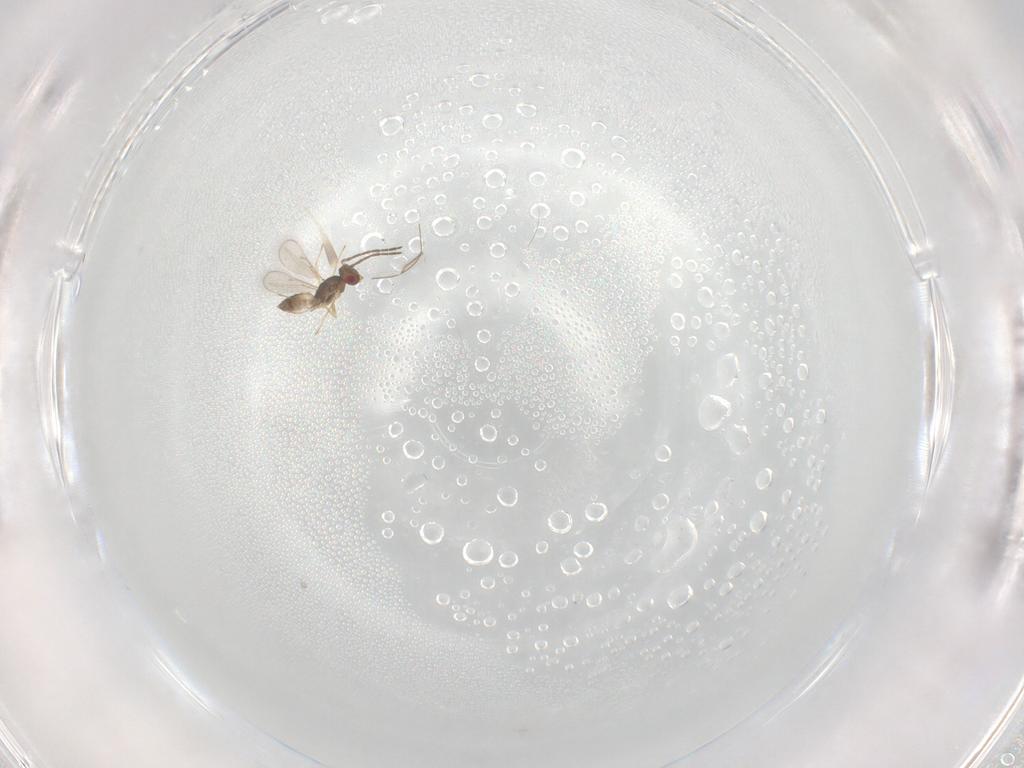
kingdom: Animalia
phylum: Arthropoda
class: Insecta
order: Hymenoptera
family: Eulophidae
